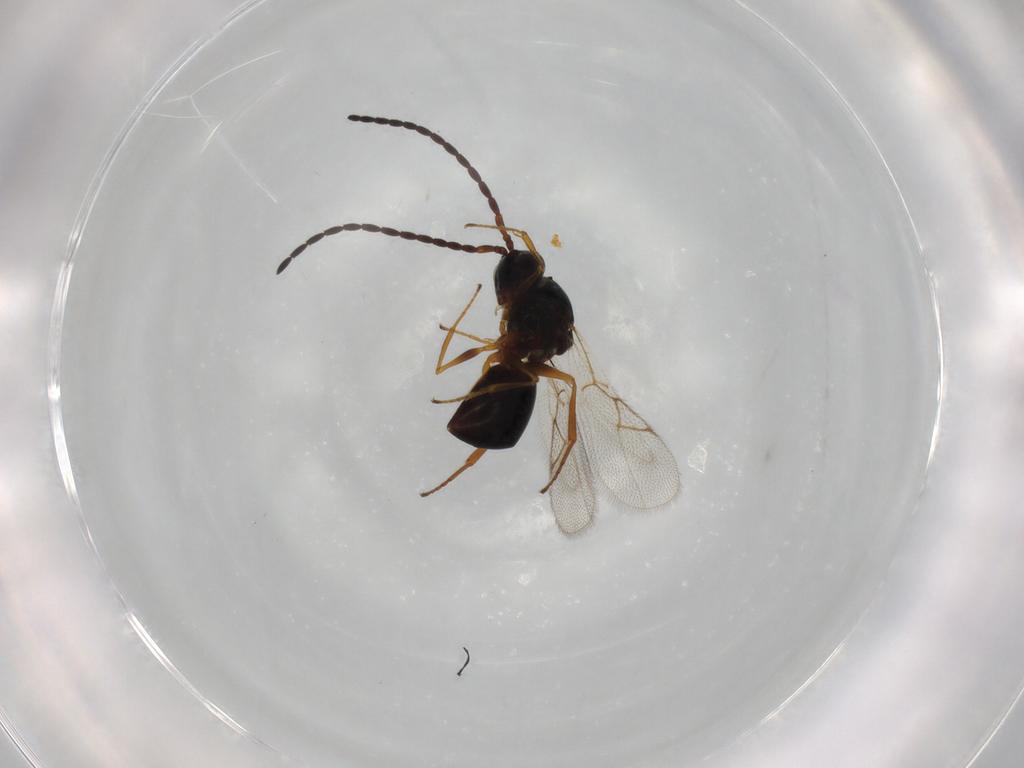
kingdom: Animalia
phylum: Arthropoda
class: Insecta
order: Hymenoptera
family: Figitidae
